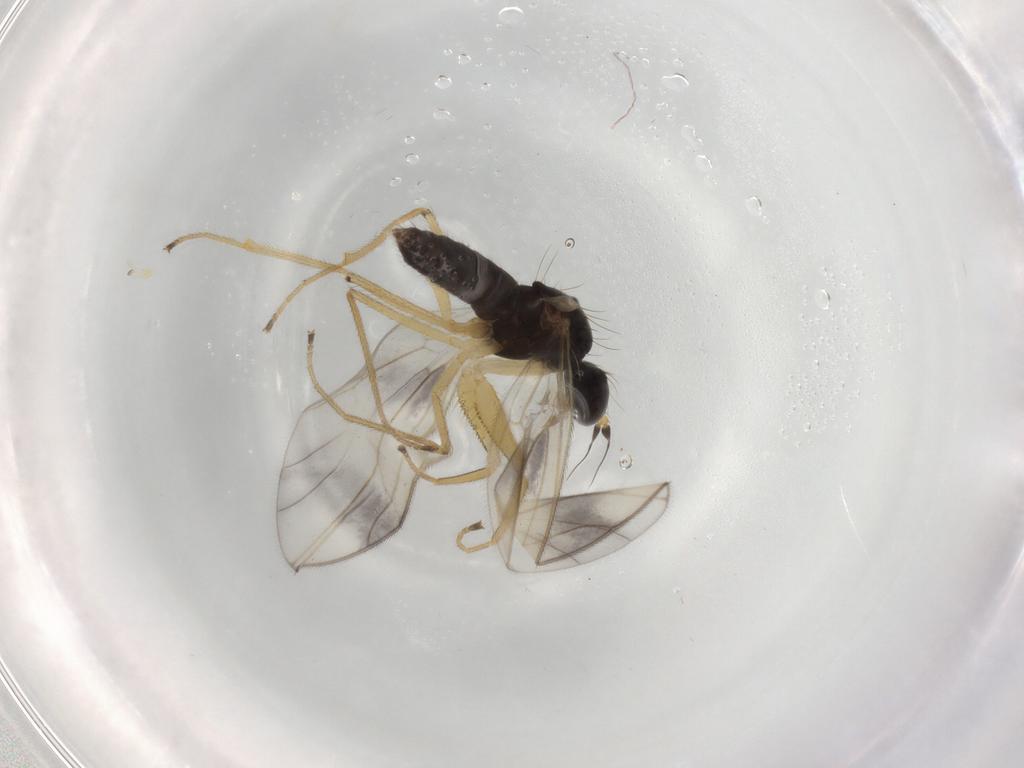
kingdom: Animalia
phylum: Arthropoda
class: Insecta
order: Diptera
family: Chironomidae
